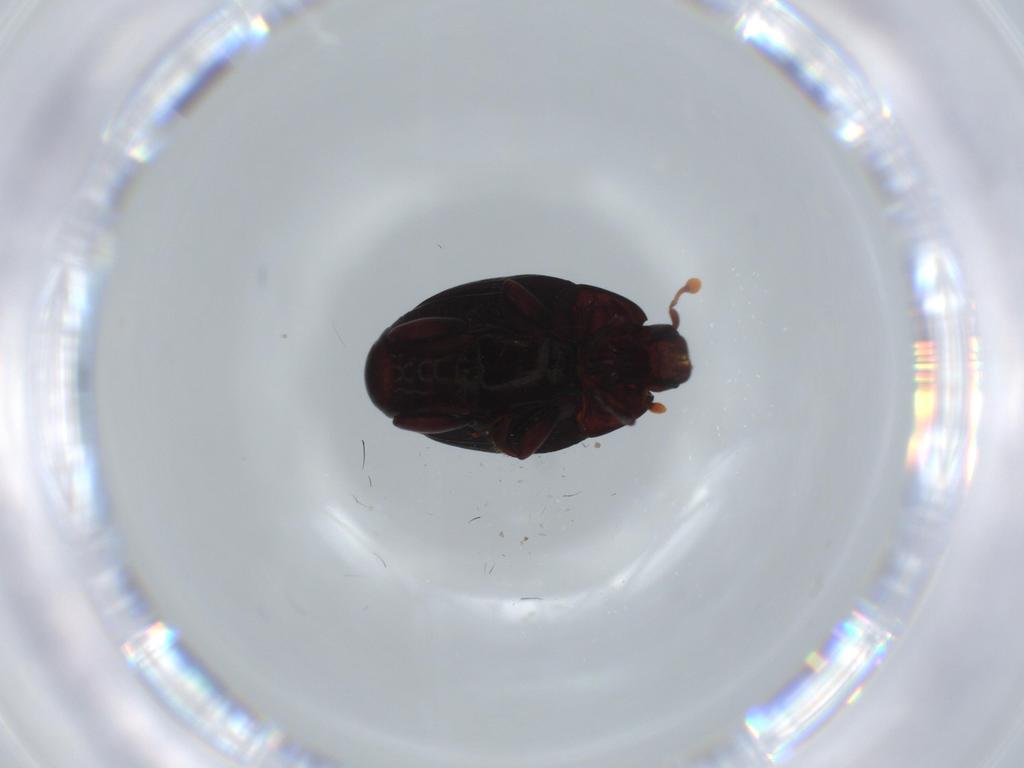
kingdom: Animalia
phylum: Arthropoda
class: Insecta
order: Coleoptera
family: Histeridae
